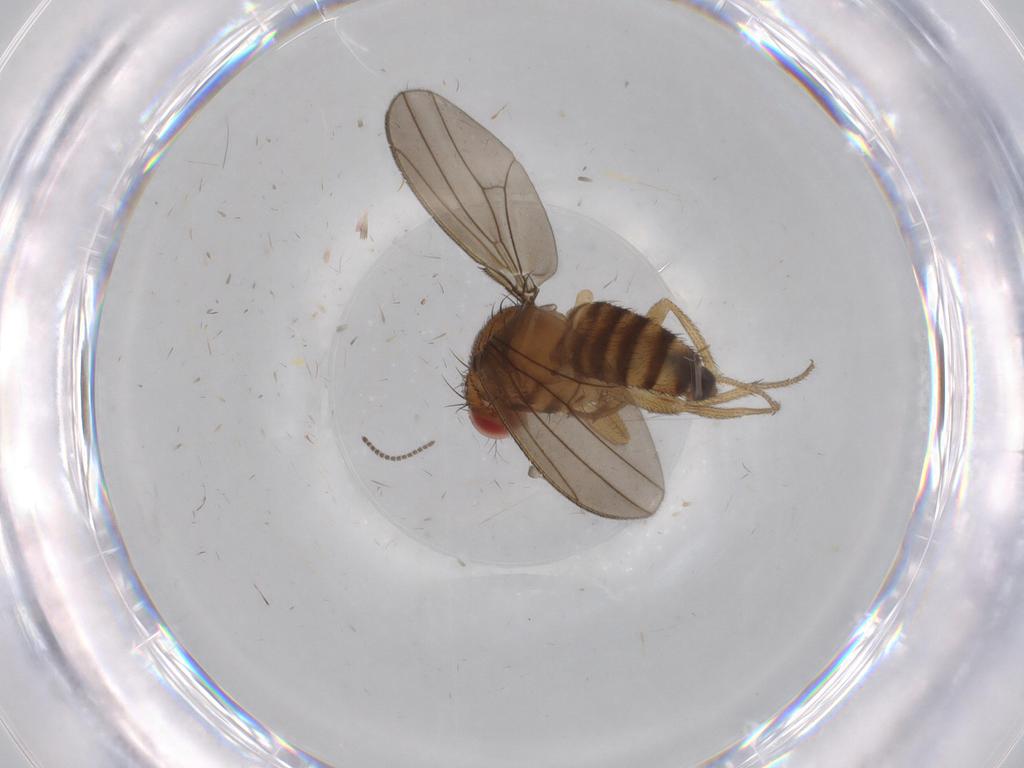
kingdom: Animalia
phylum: Arthropoda
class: Insecta
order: Diptera
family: Drosophilidae
